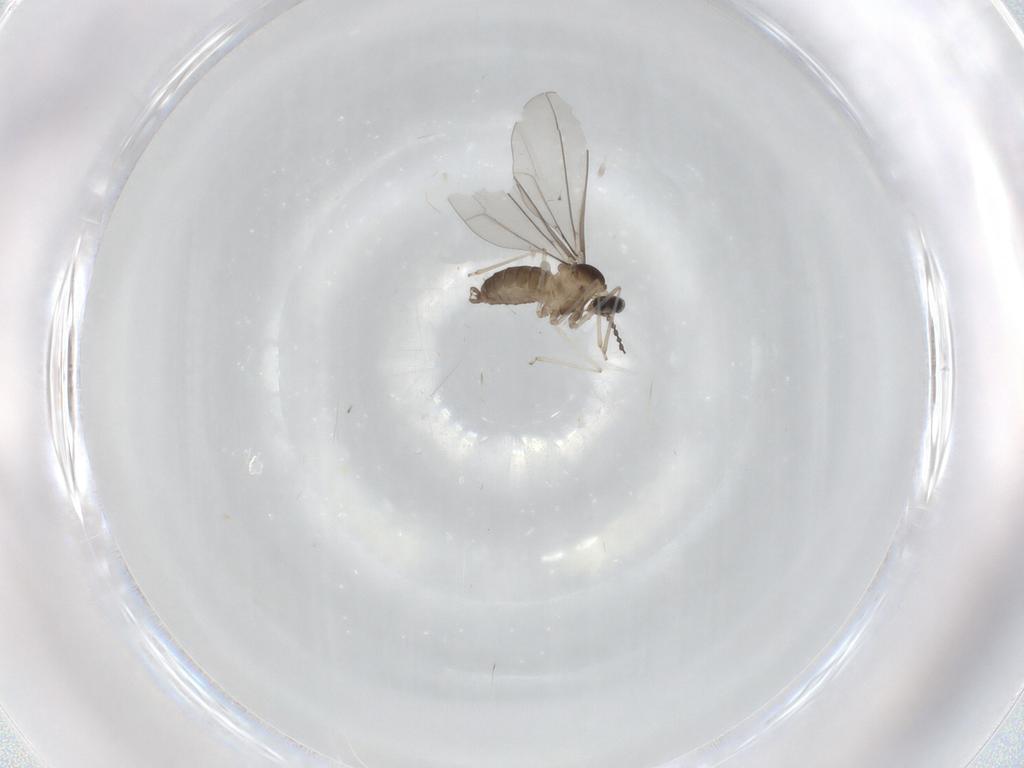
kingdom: Animalia
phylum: Arthropoda
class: Insecta
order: Diptera
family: Cecidomyiidae
